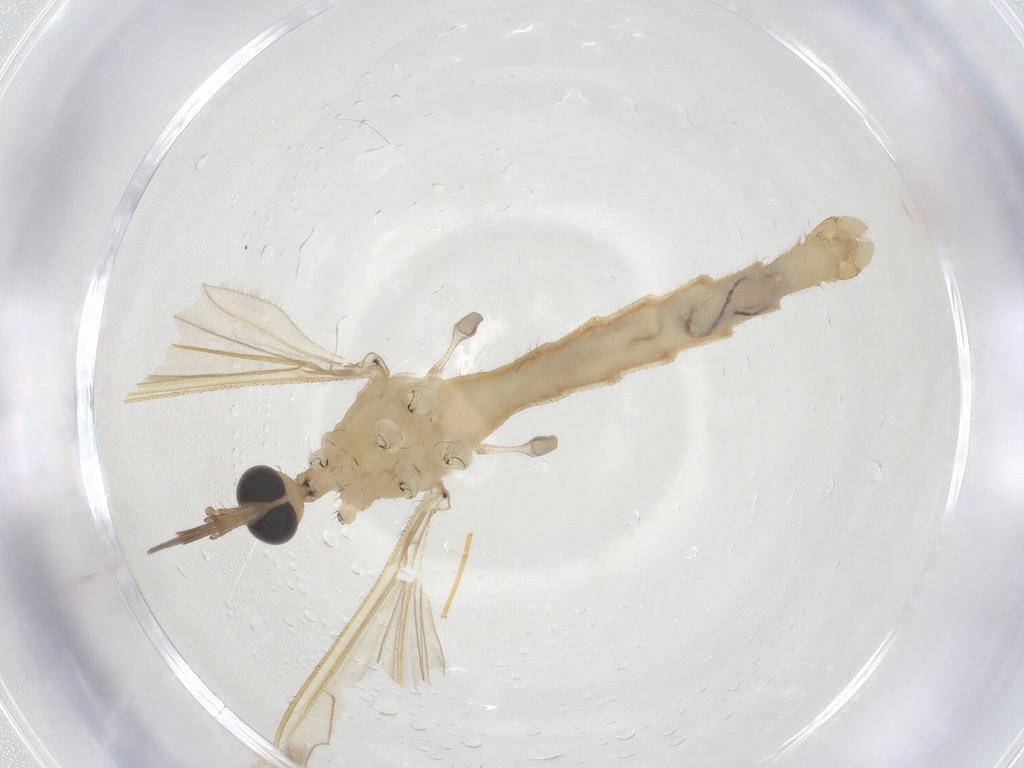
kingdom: Animalia
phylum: Arthropoda
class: Insecta
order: Diptera
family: Limoniidae
